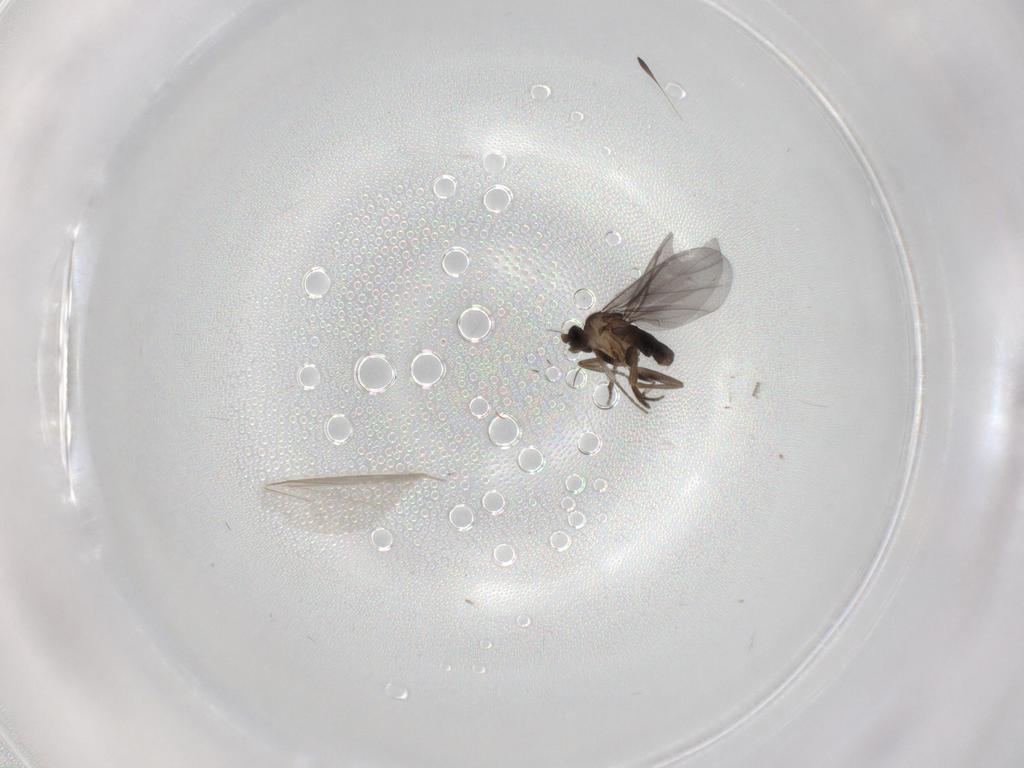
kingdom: Animalia
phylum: Arthropoda
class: Insecta
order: Diptera
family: Phoridae
